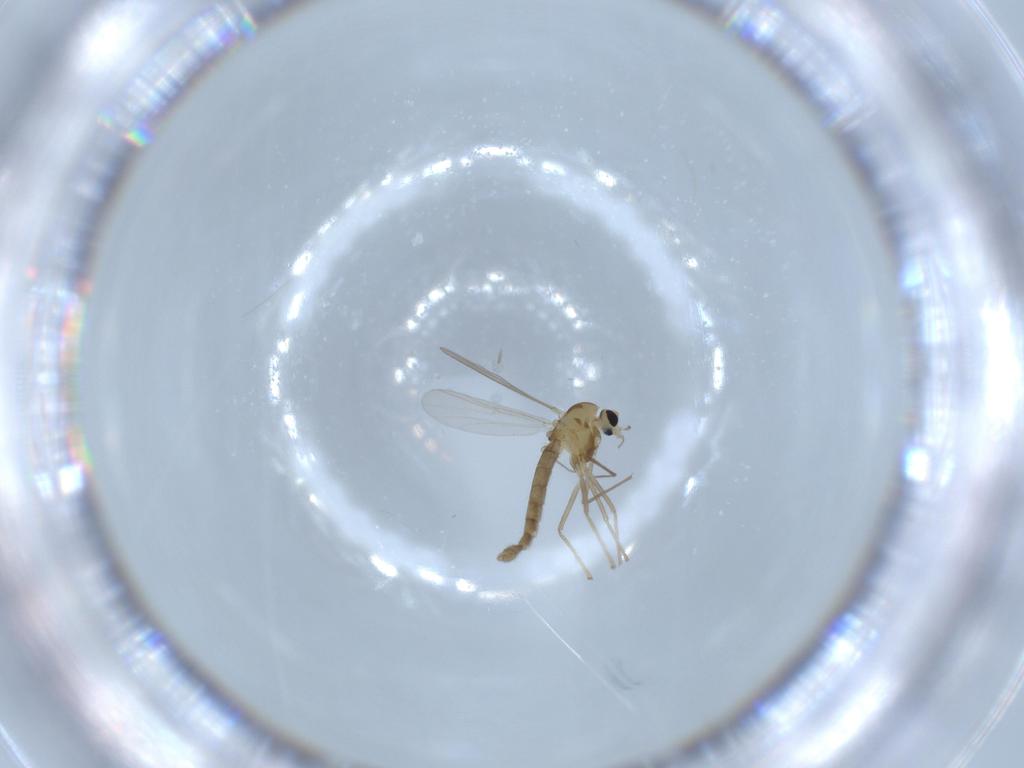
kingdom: Animalia
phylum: Arthropoda
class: Insecta
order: Diptera
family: Chironomidae
